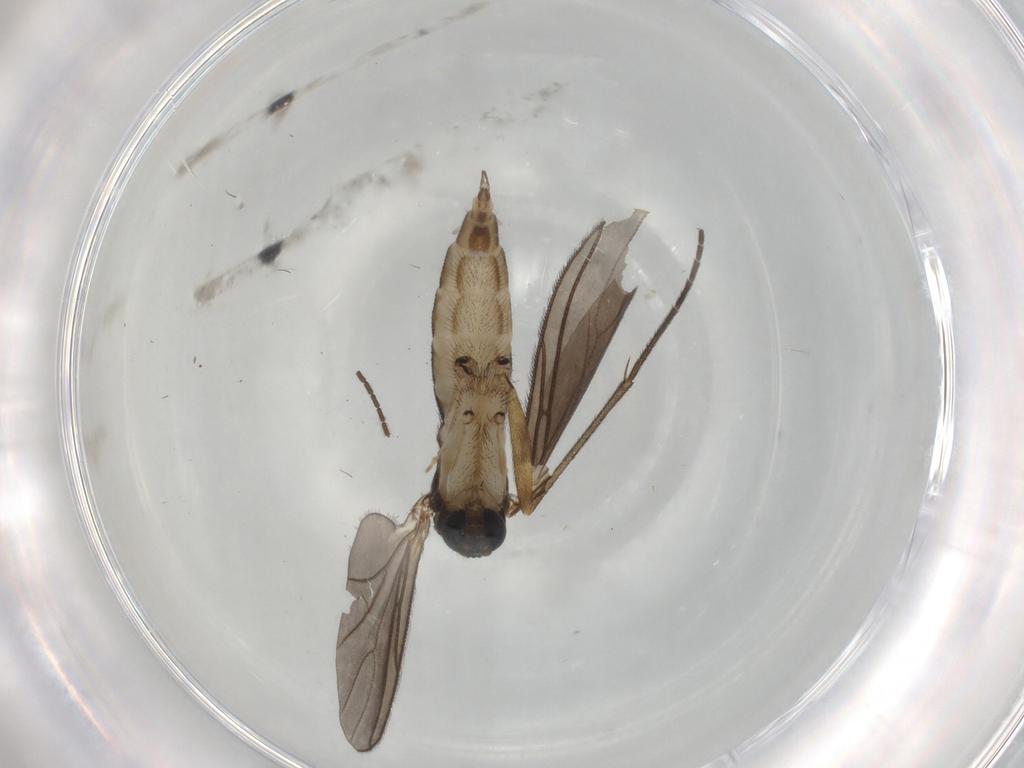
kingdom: Animalia
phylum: Arthropoda
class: Insecta
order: Diptera
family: Sciaridae
